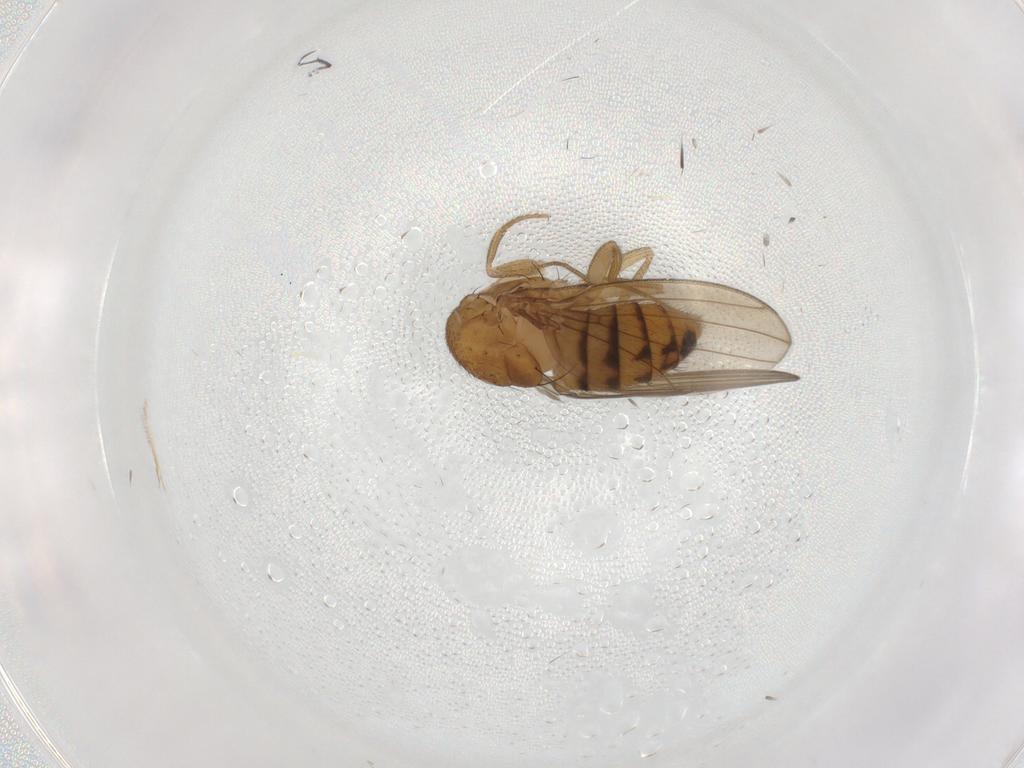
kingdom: Animalia
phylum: Arthropoda
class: Insecta
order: Diptera
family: Drosophilidae
